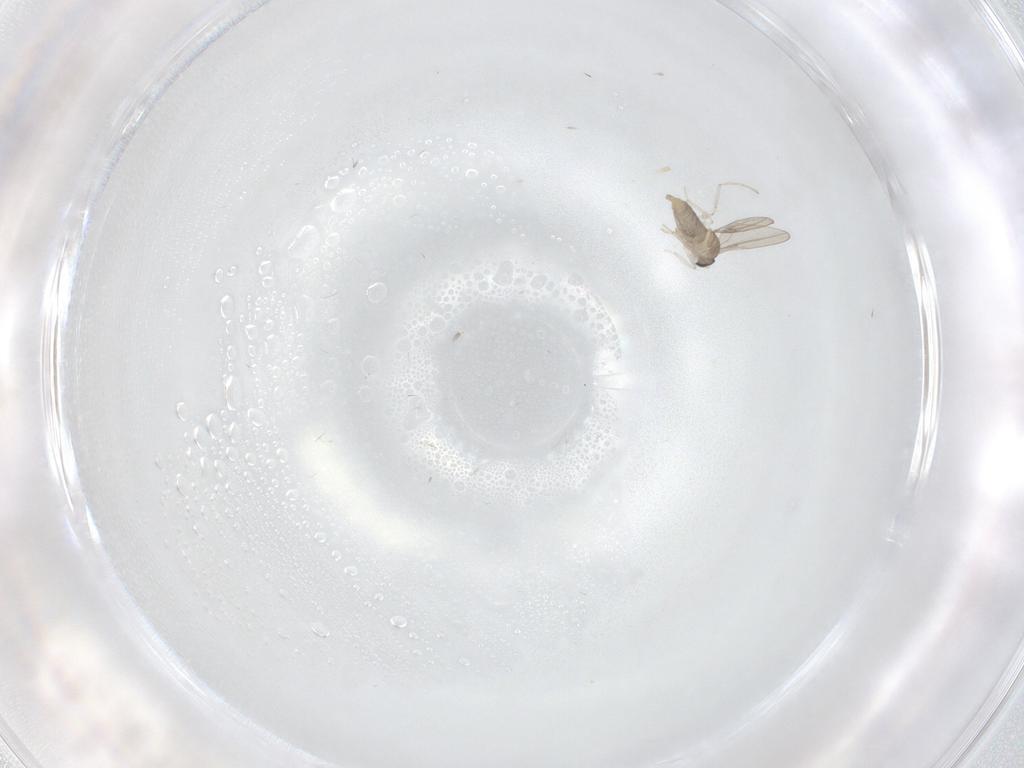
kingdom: Animalia
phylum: Arthropoda
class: Insecta
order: Diptera
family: Cecidomyiidae
